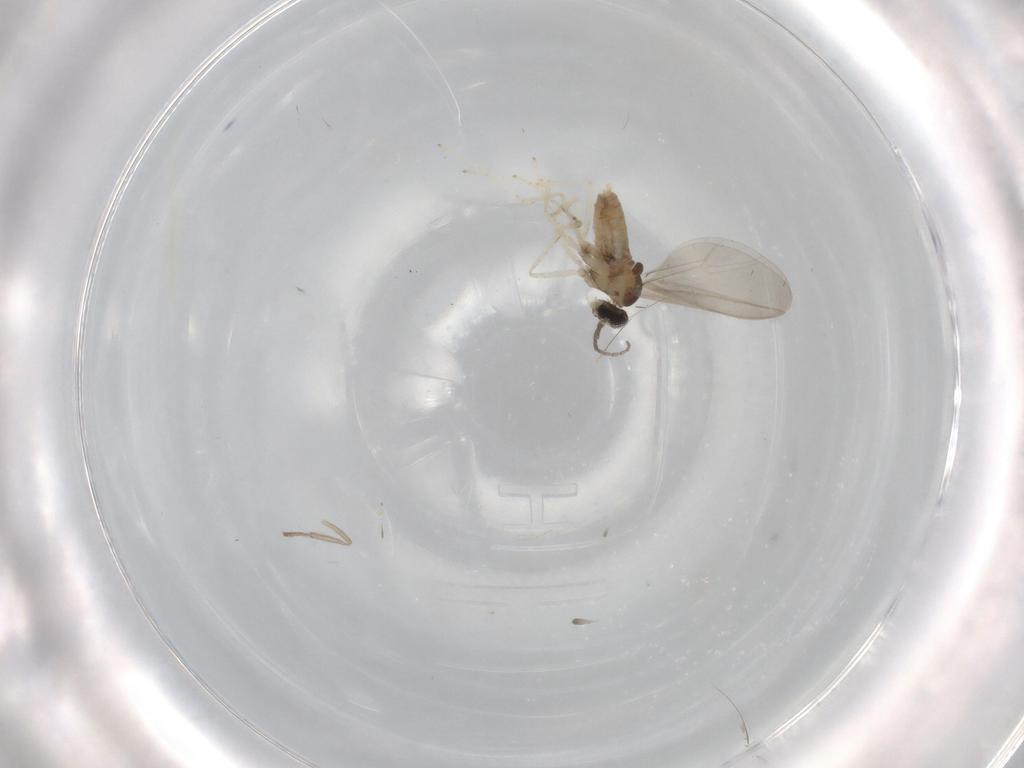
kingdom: Animalia
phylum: Arthropoda
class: Insecta
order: Diptera
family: Cecidomyiidae
